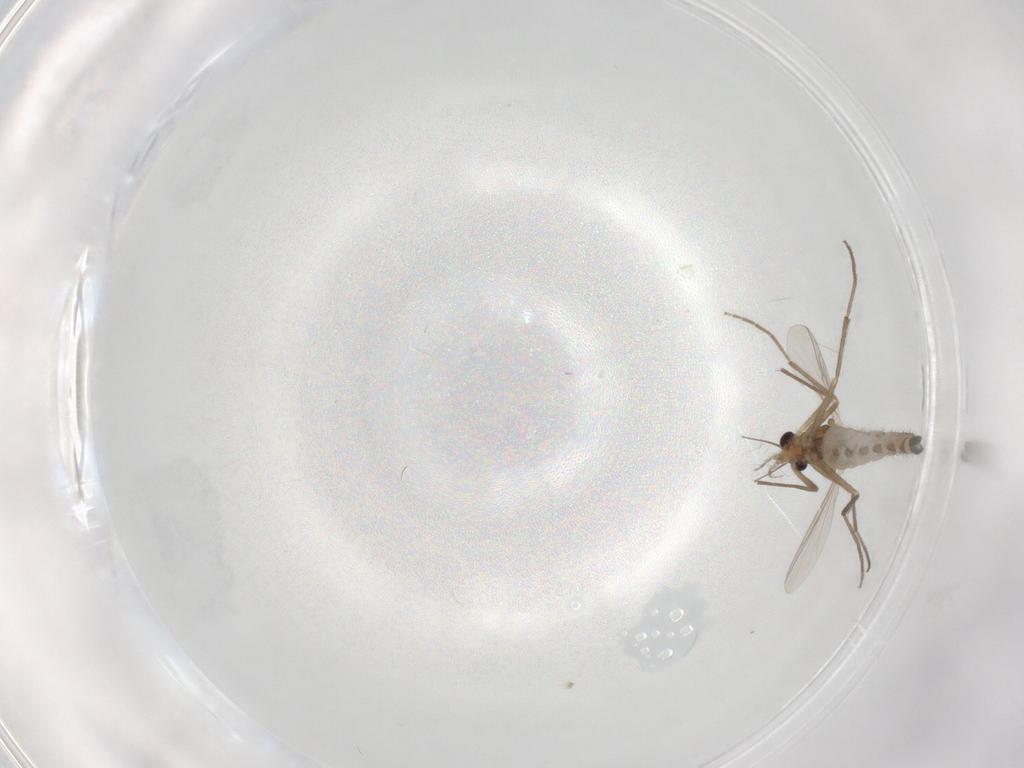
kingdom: Animalia
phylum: Arthropoda
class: Insecta
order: Diptera
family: Chironomidae
